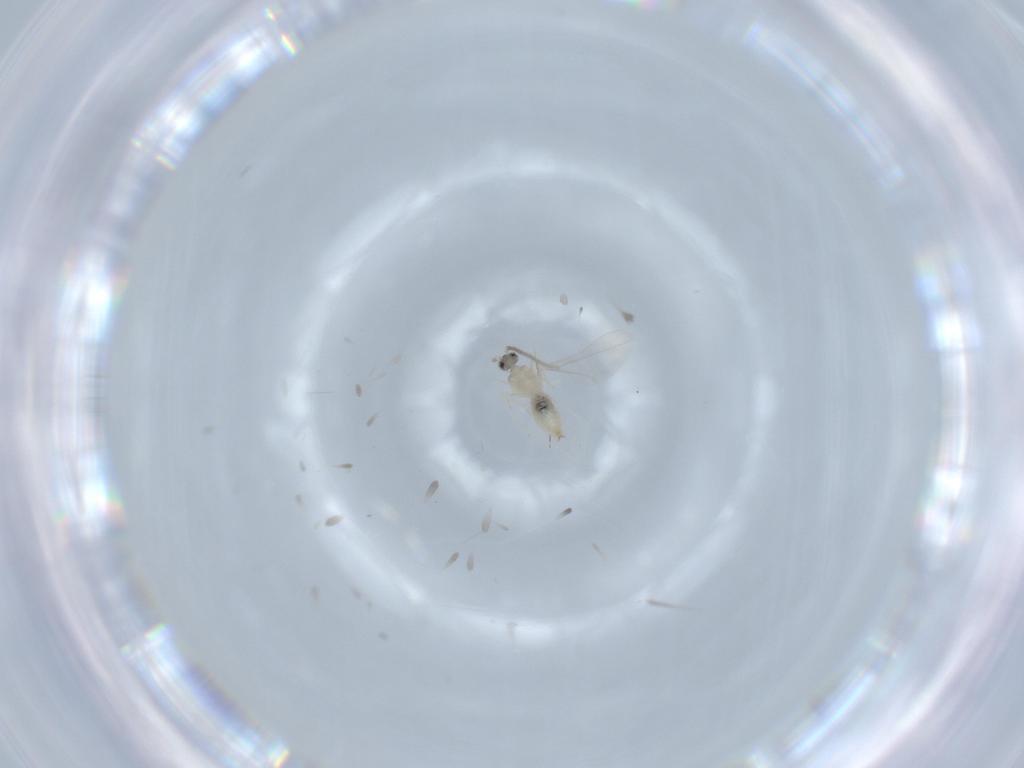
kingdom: Animalia
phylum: Arthropoda
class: Insecta
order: Diptera
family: Cecidomyiidae
